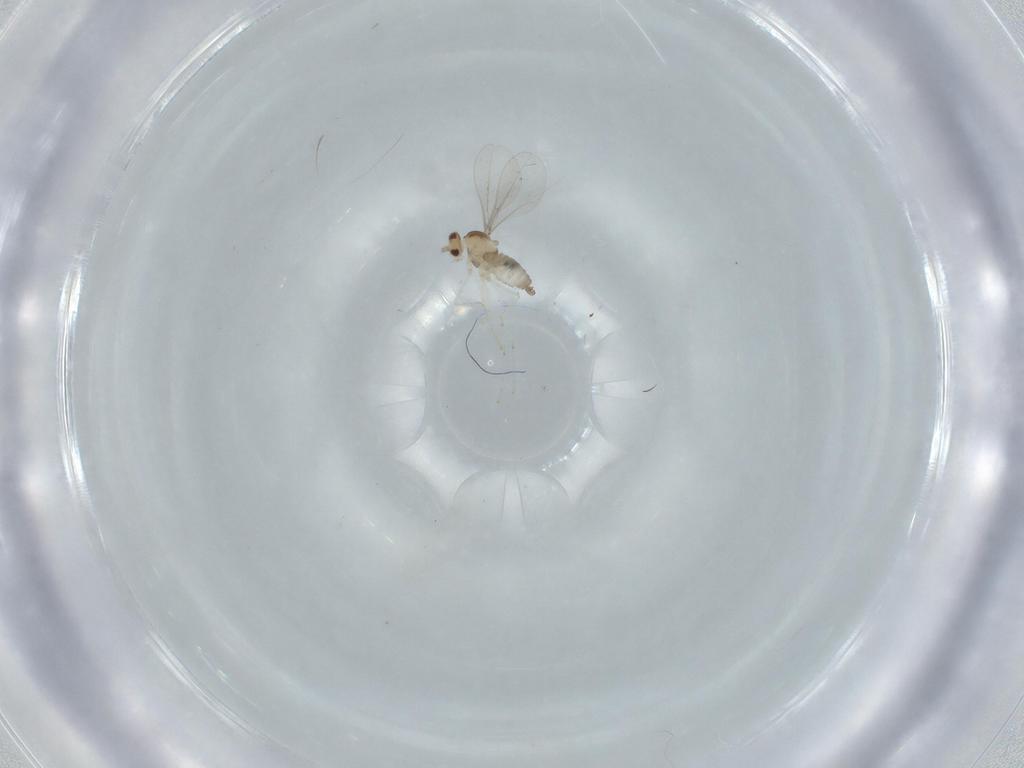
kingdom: Animalia
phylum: Arthropoda
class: Insecta
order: Diptera
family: Cecidomyiidae
